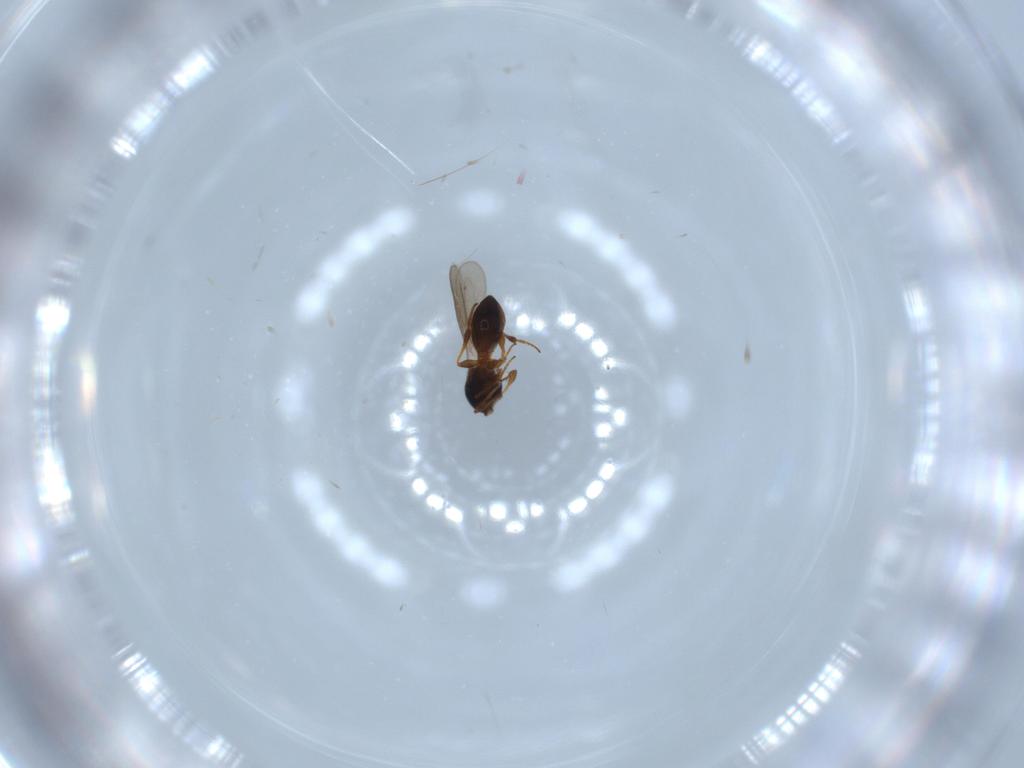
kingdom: Animalia
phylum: Arthropoda
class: Insecta
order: Hymenoptera
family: Platygastridae
